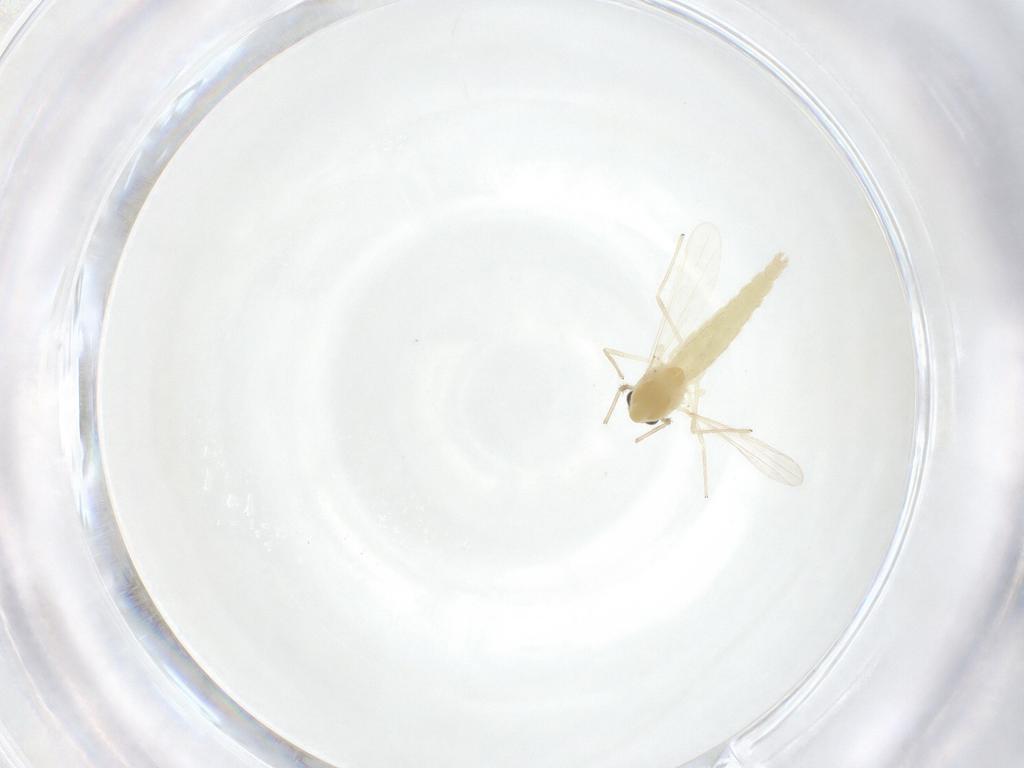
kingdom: Animalia
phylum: Arthropoda
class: Insecta
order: Diptera
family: Chironomidae
